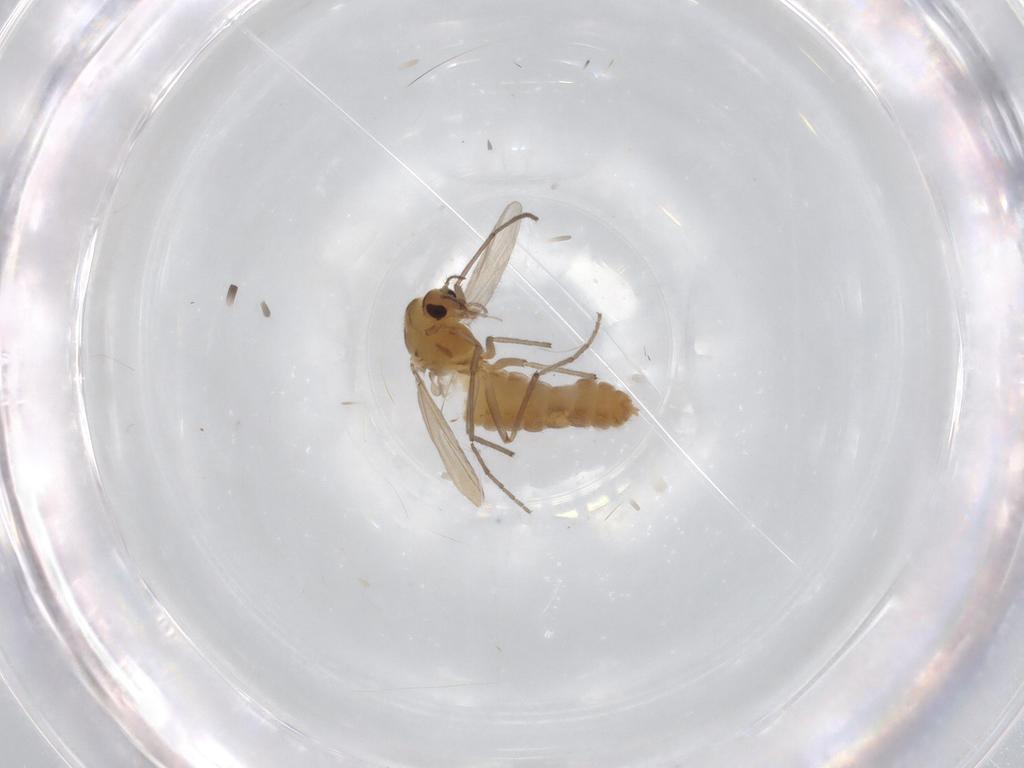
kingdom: Animalia
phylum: Arthropoda
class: Insecta
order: Diptera
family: Chironomidae
